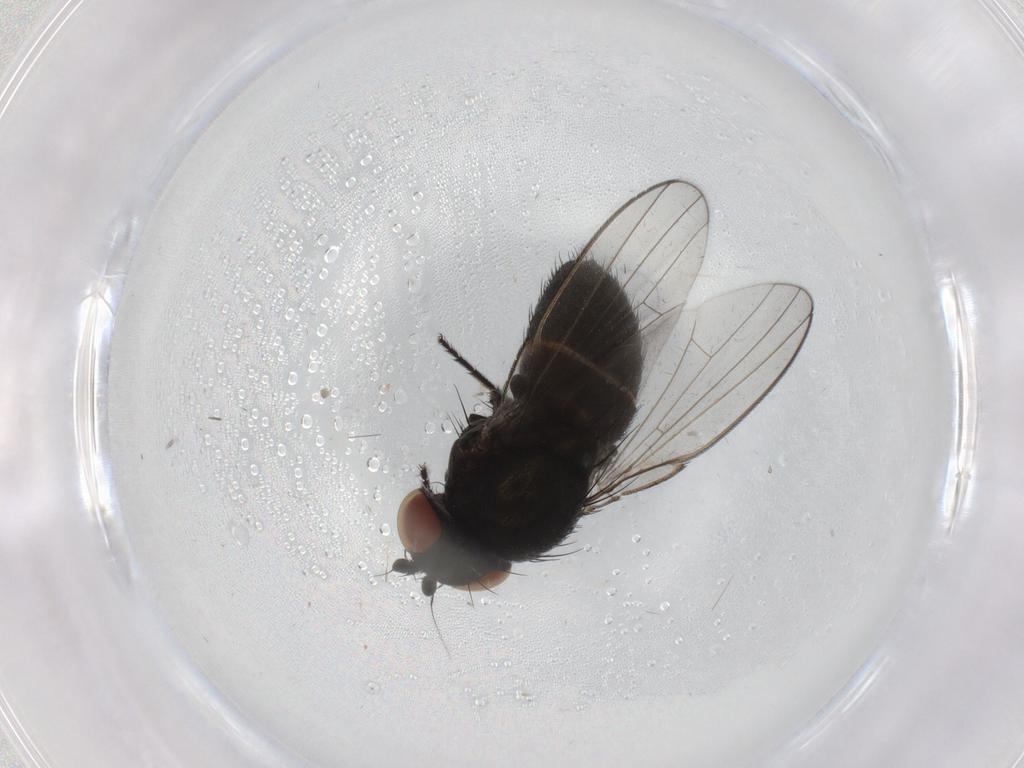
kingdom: Animalia
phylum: Arthropoda
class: Insecta
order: Diptera
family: Milichiidae
